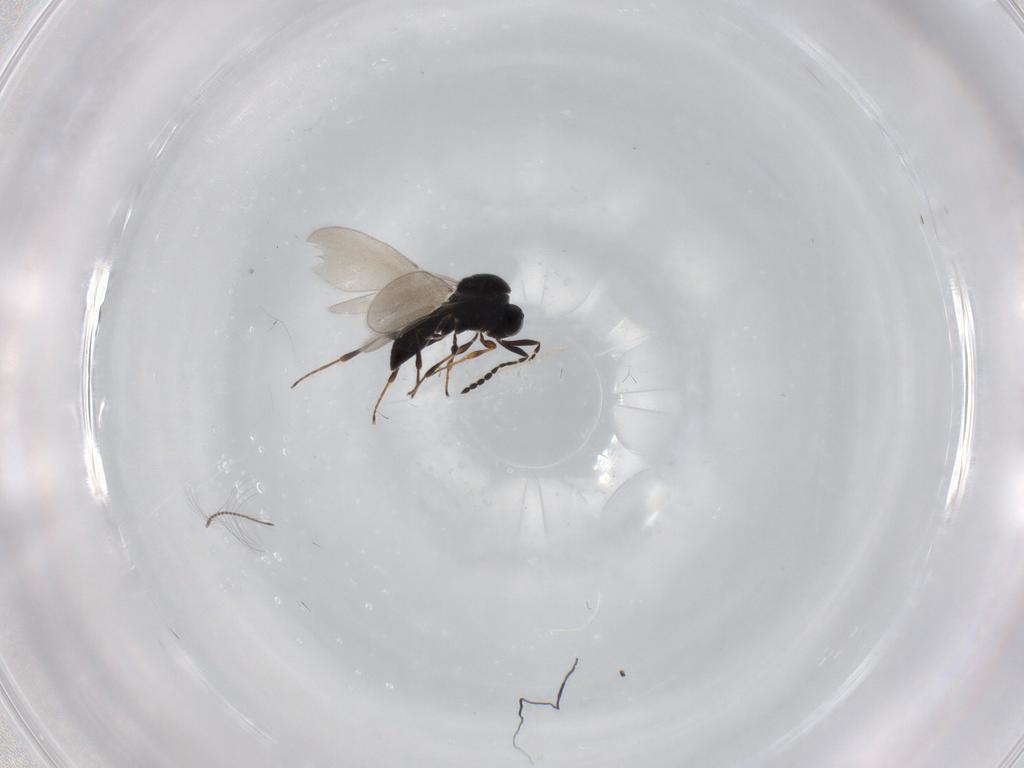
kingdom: Animalia
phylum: Arthropoda
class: Insecta
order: Hymenoptera
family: Platygastridae
